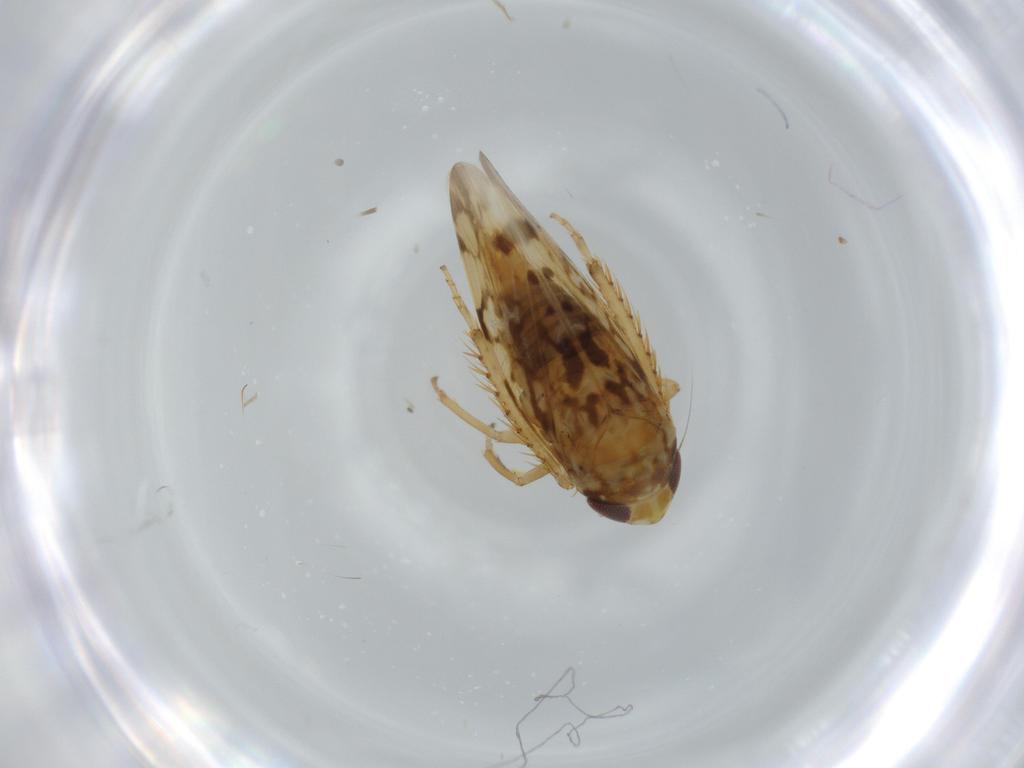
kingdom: Animalia
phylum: Arthropoda
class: Insecta
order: Hemiptera
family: Cicadellidae
